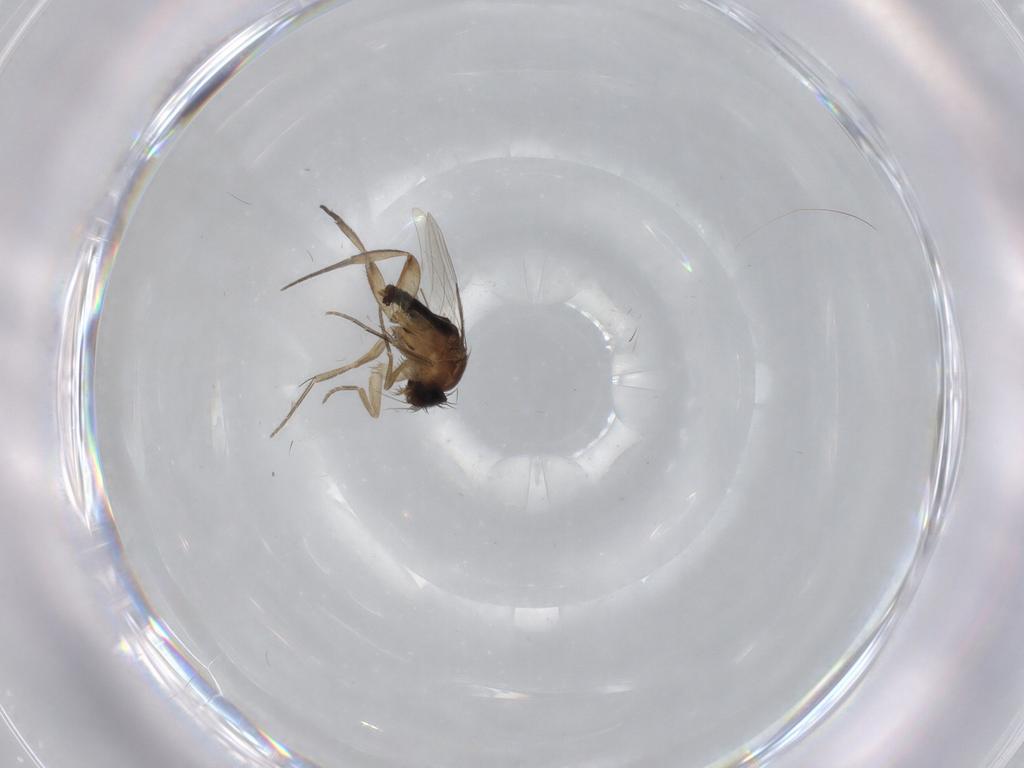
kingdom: Animalia
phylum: Arthropoda
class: Insecta
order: Diptera
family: Phoridae
